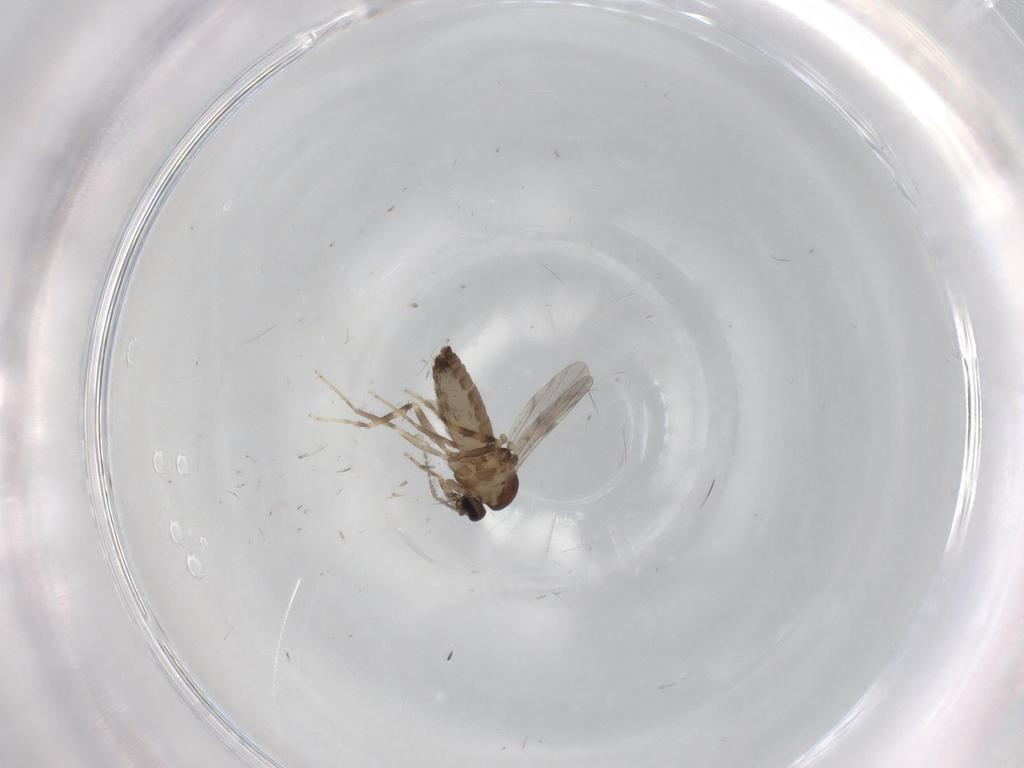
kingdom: Animalia
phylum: Arthropoda
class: Insecta
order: Diptera
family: Ceratopogonidae
